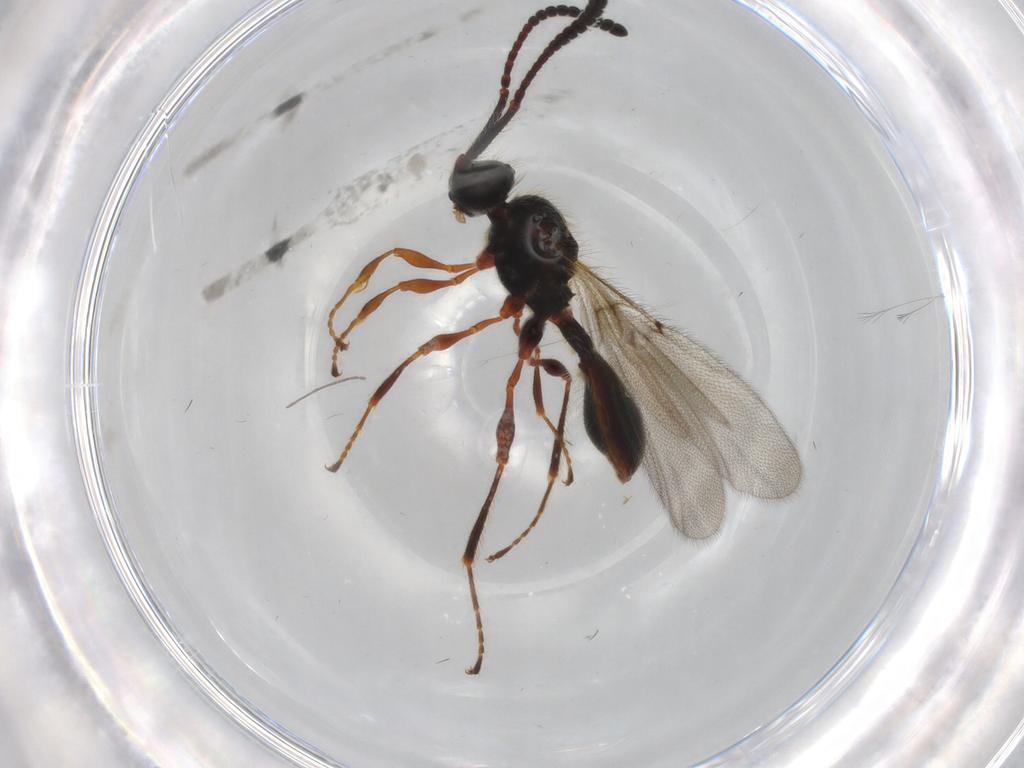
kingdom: Animalia
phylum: Arthropoda
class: Insecta
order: Hymenoptera
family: Diapriidae
